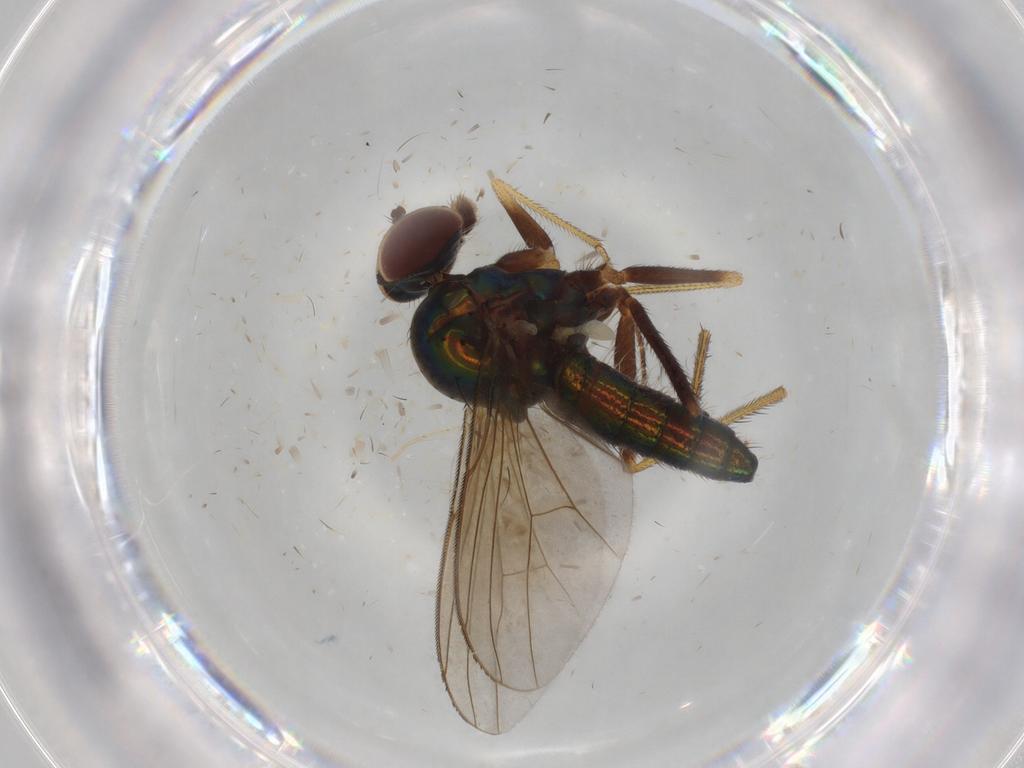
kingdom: Animalia
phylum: Arthropoda
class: Insecta
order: Diptera
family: Dolichopodidae
